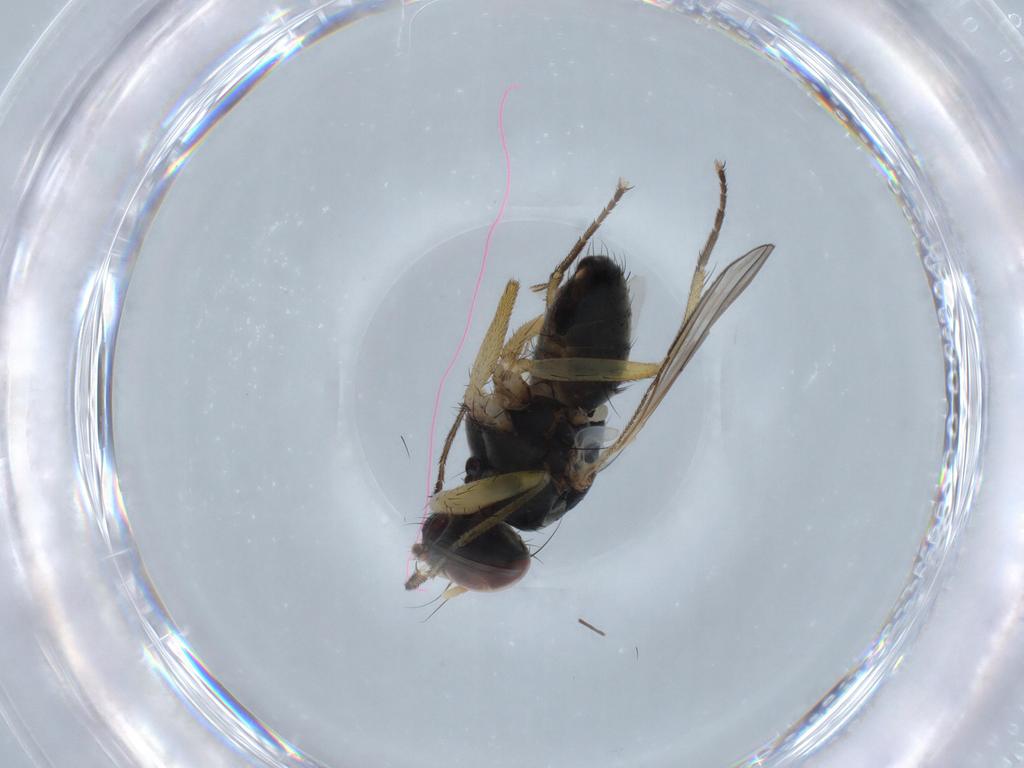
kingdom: Animalia
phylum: Arthropoda
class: Insecta
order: Diptera
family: Sarcophagidae
